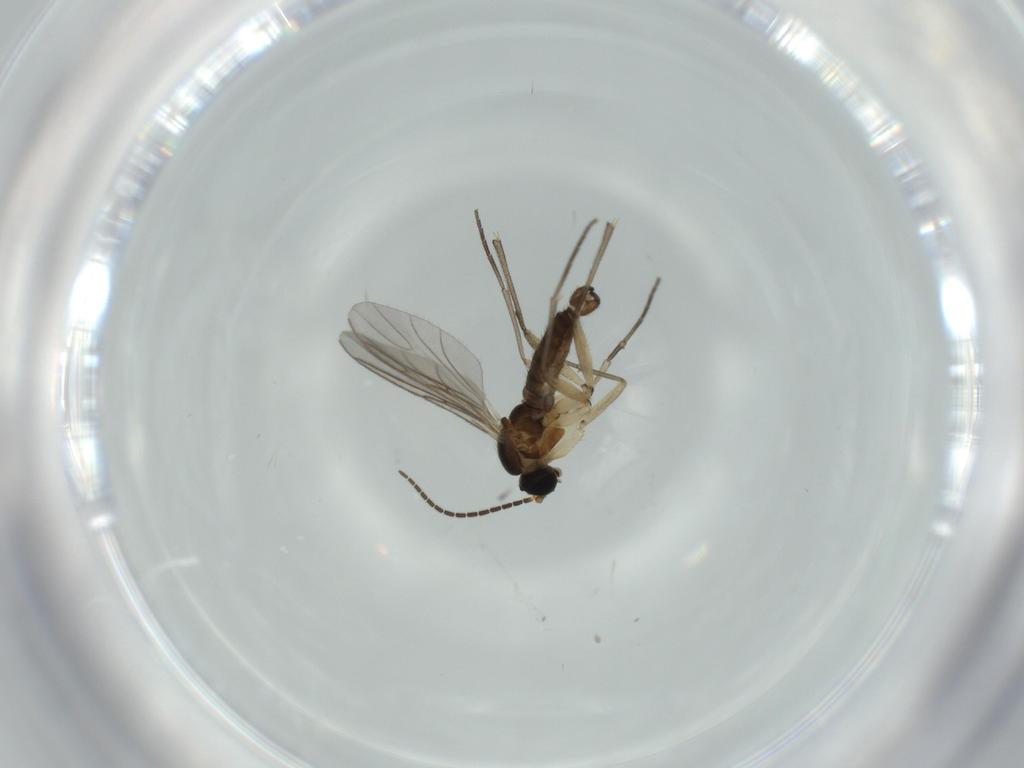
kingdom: Animalia
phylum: Arthropoda
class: Insecta
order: Diptera
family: Sciaridae
